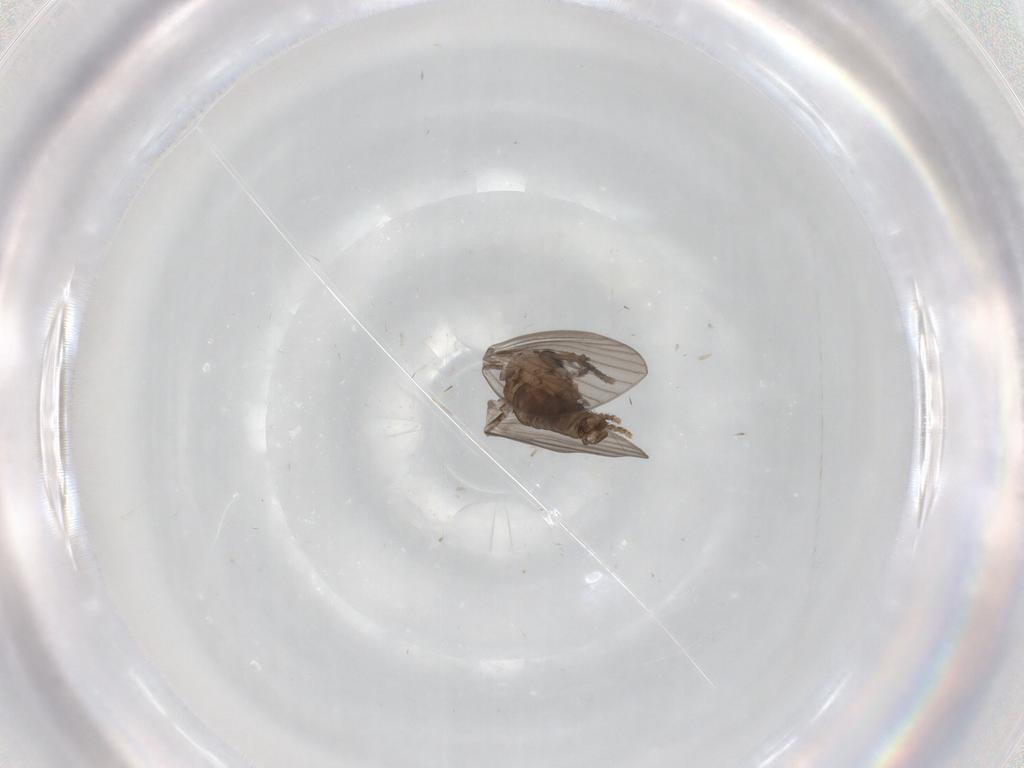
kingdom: Animalia
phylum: Arthropoda
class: Insecta
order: Diptera
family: Psychodidae
